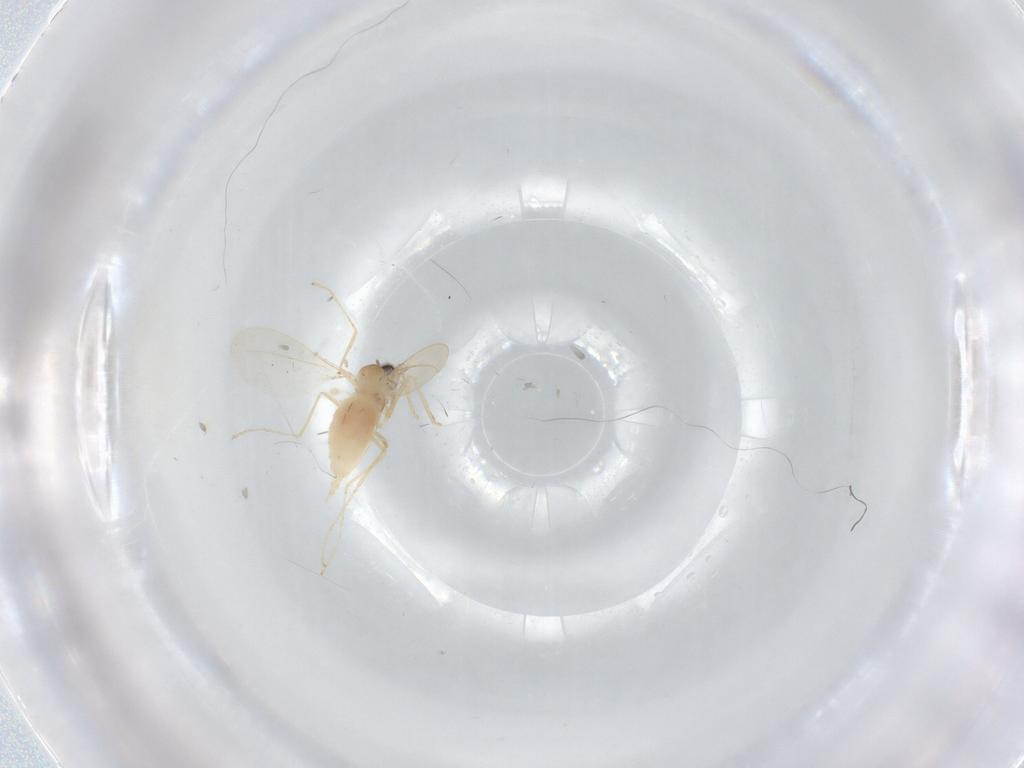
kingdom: Animalia
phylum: Arthropoda
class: Insecta
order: Diptera
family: Cecidomyiidae
